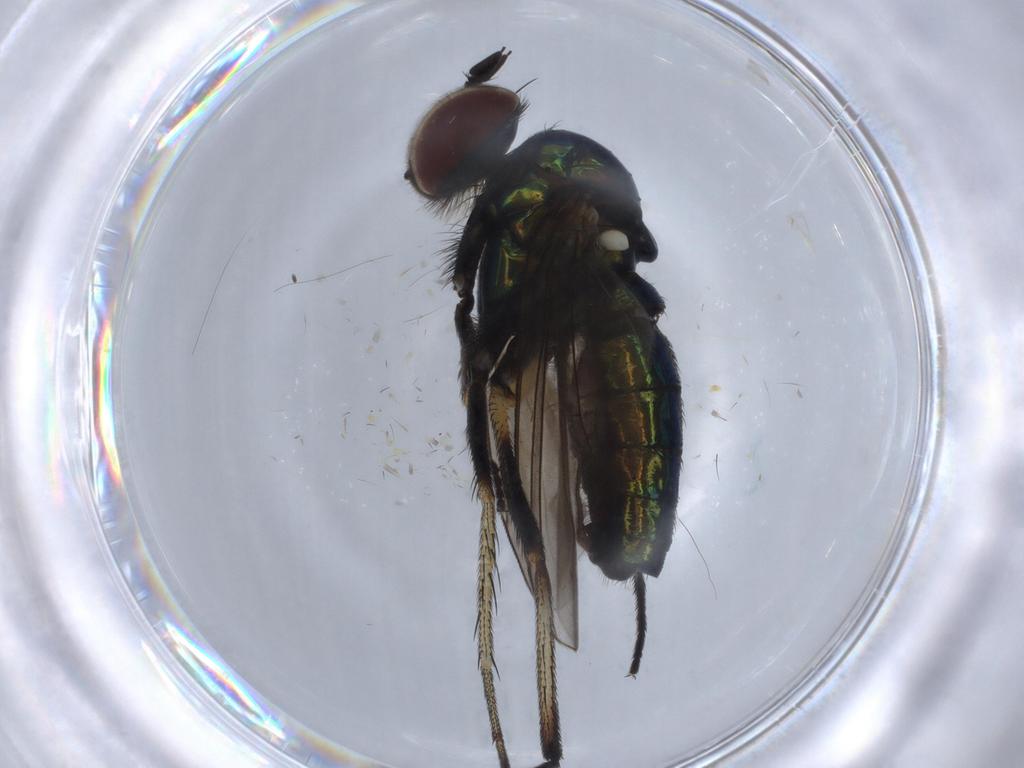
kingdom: Animalia
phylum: Arthropoda
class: Insecta
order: Diptera
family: Dolichopodidae
